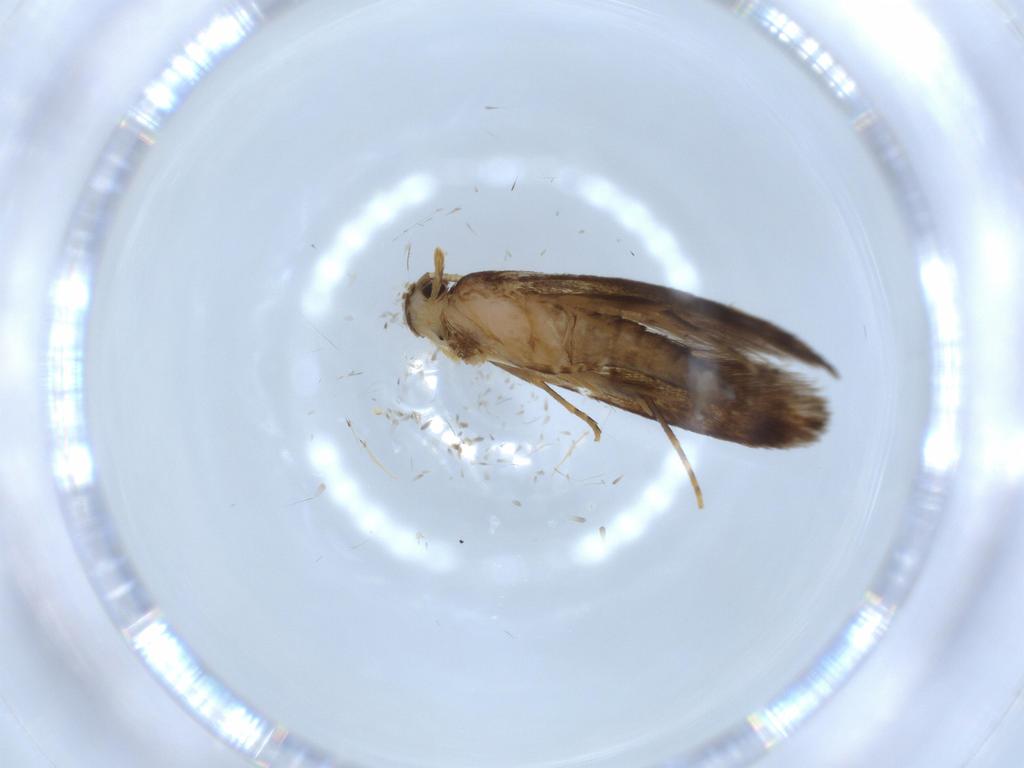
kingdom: Animalia
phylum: Arthropoda
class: Insecta
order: Lepidoptera
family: Tineidae
